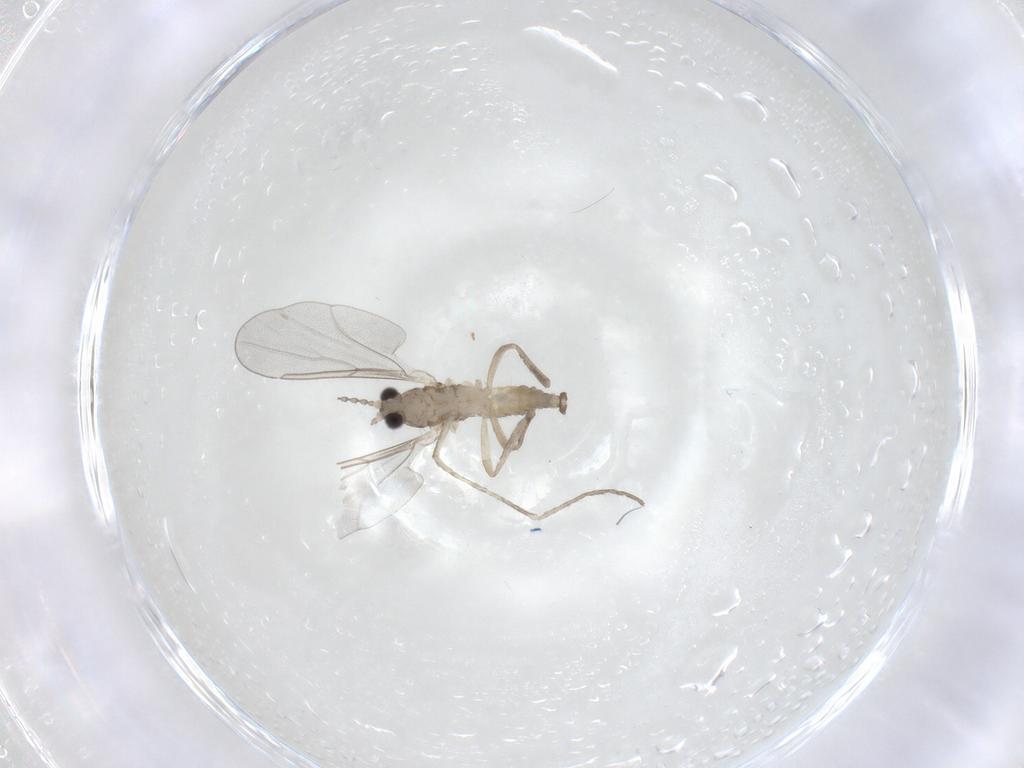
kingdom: Animalia
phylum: Arthropoda
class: Insecta
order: Diptera
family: Cecidomyiidae
